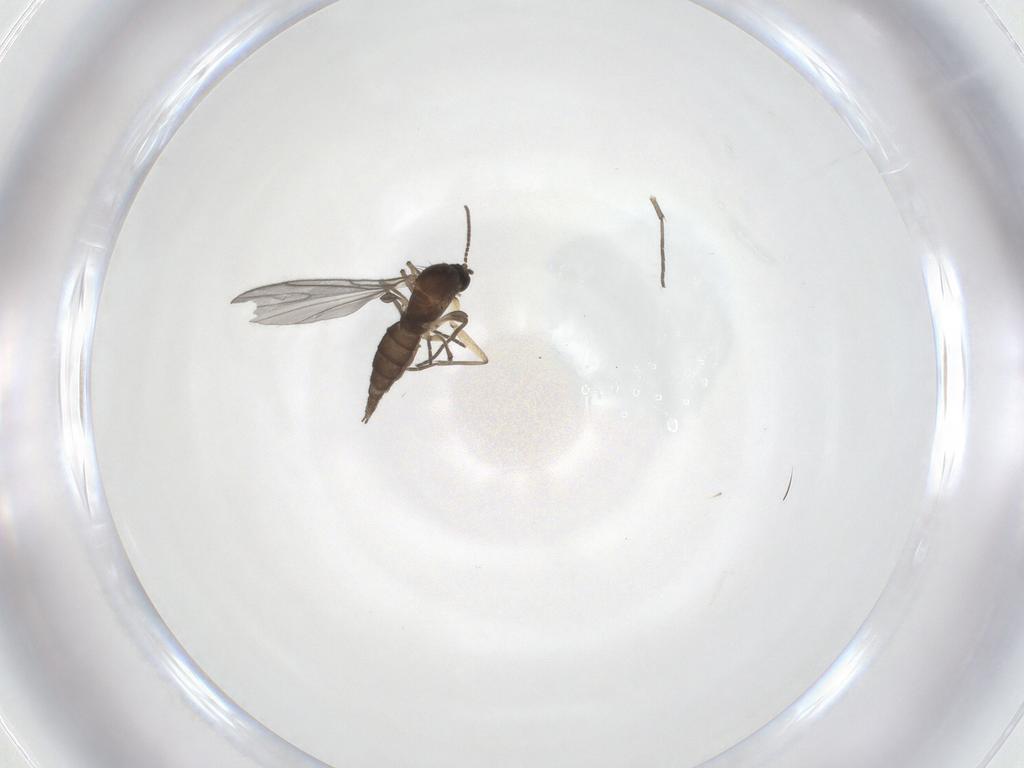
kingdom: Animalia
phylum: Arthropoda
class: Insecta
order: Diptera
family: Sciaridae
